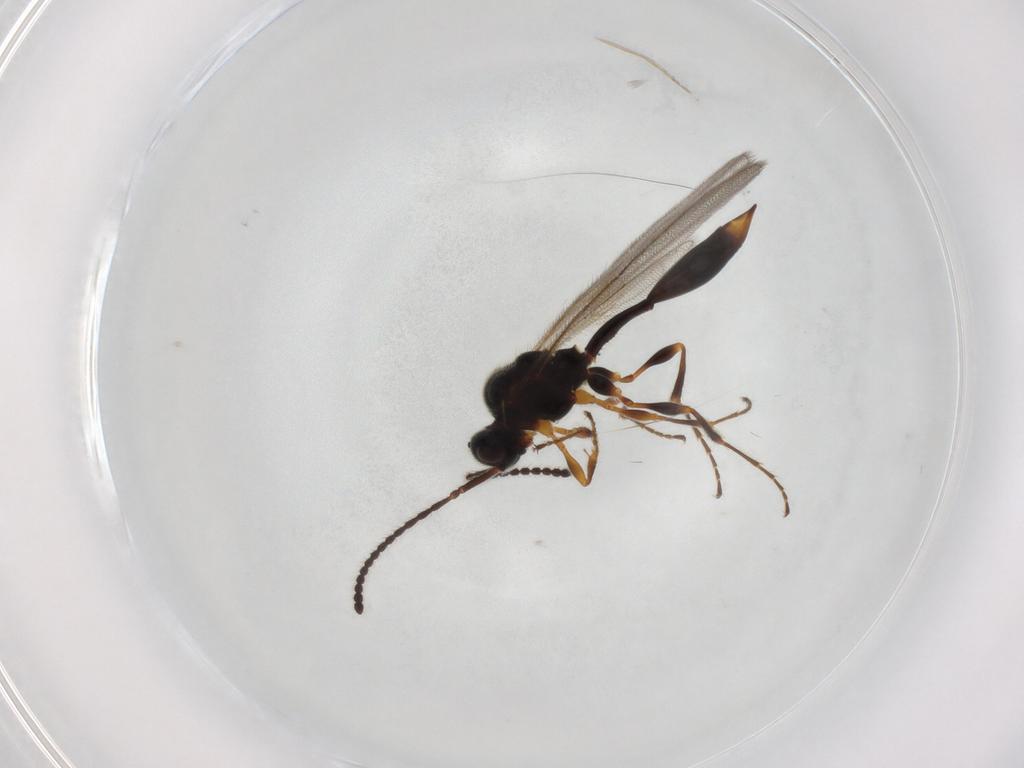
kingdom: Animalia
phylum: Arthropoda
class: Insecta
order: Hymenoptera
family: Diapriidae
